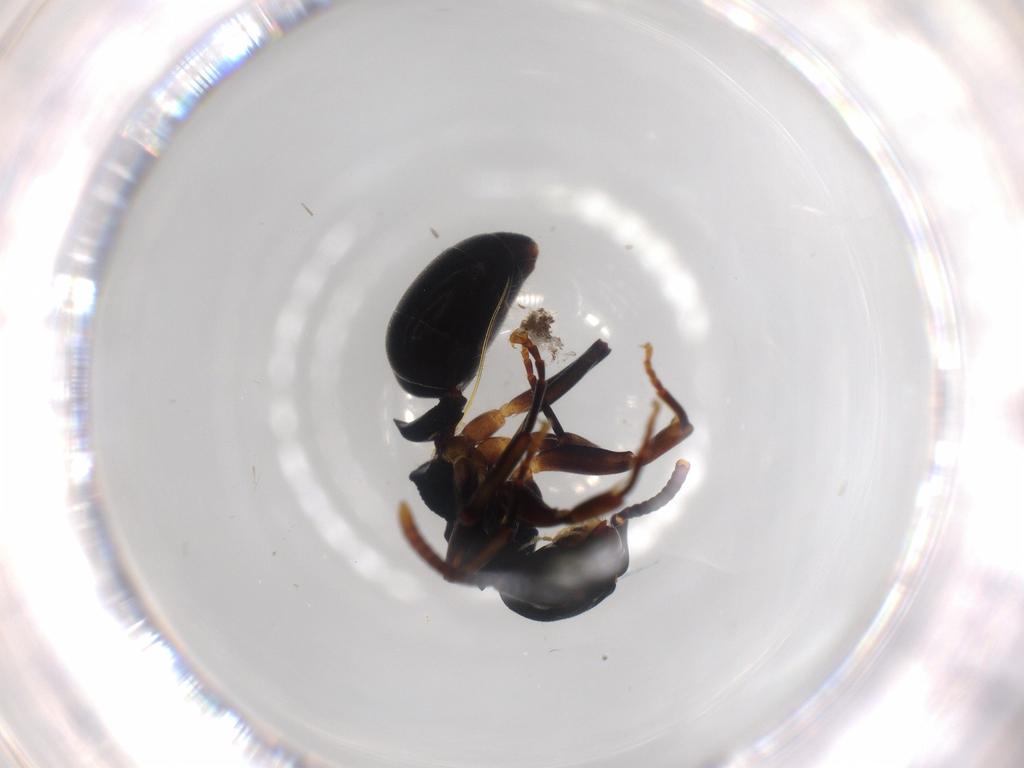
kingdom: Animalia
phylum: Arthropoda
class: Insecta
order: Hymenoptera
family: Formicidae
